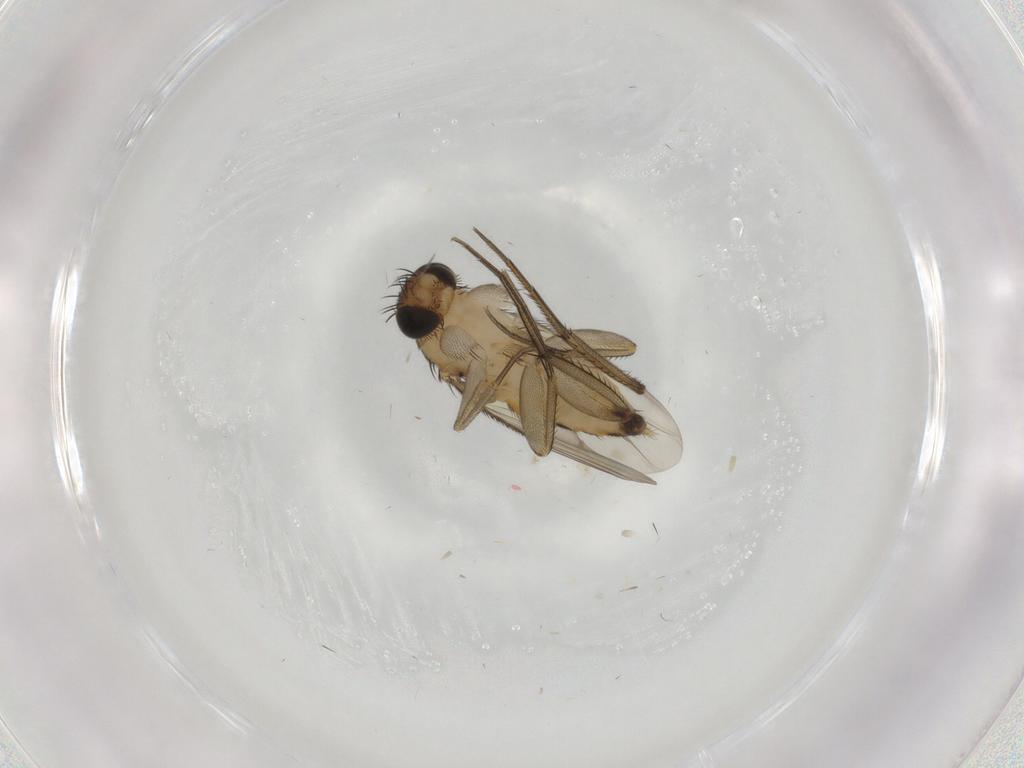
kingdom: Animalia
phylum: Arthropoda
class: Insecta
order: Diptera
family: Phoridae
